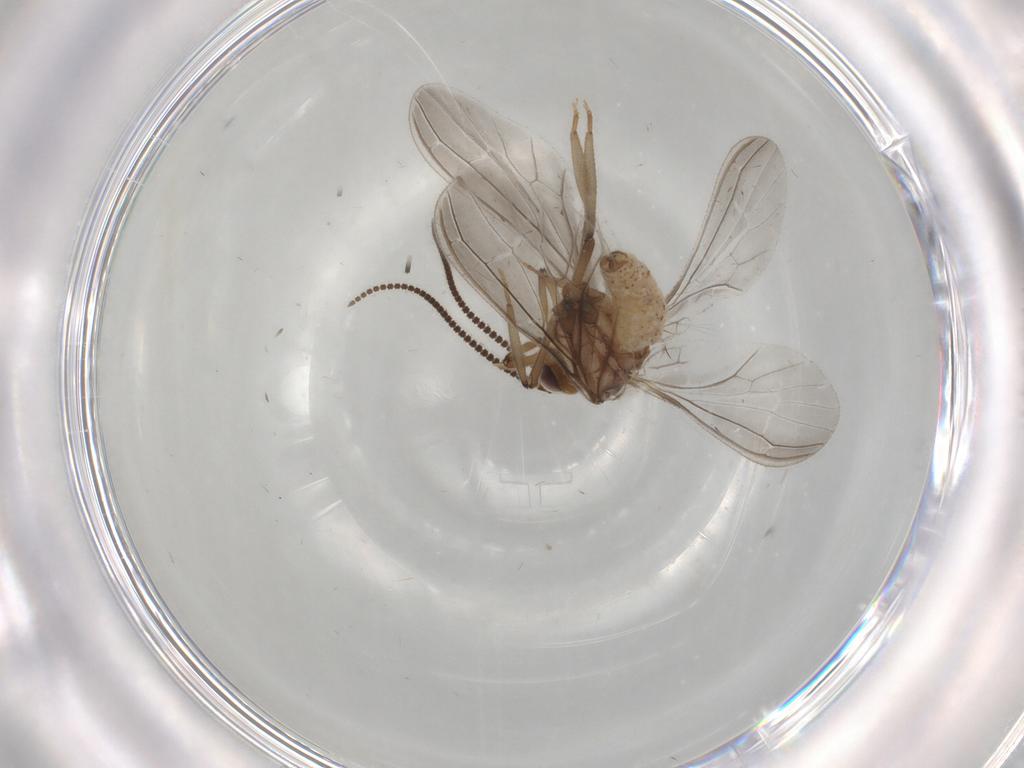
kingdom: Animalia
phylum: Arthropoda
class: Insecta
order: Neuroptera
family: Coniopterygidae
